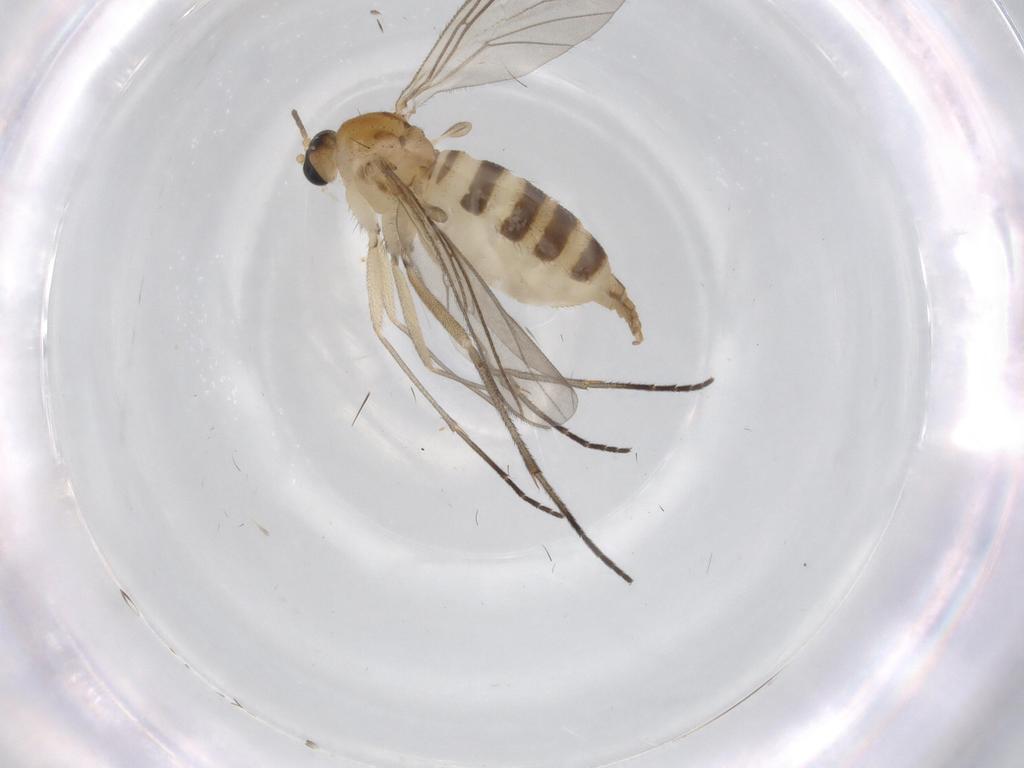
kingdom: Animalia
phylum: Arthropoda
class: Insecta
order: Diptera
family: Sciaridae
